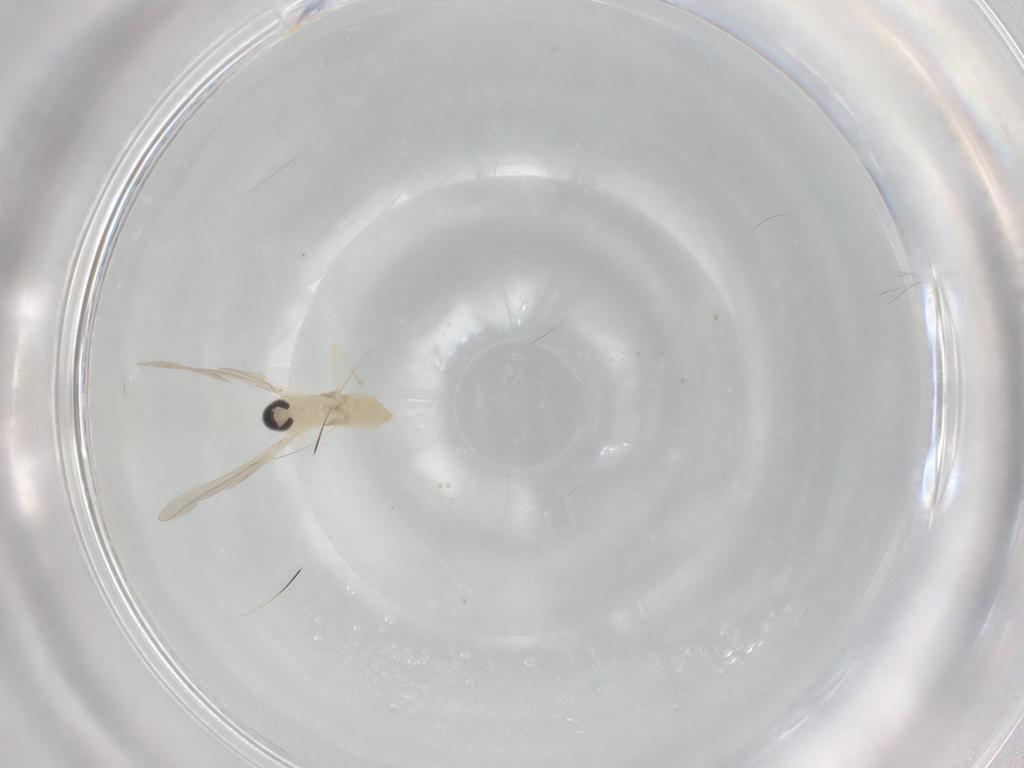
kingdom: Animalia
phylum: Arthropoda
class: Insecta
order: Diptera
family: Cecidomyiidae
